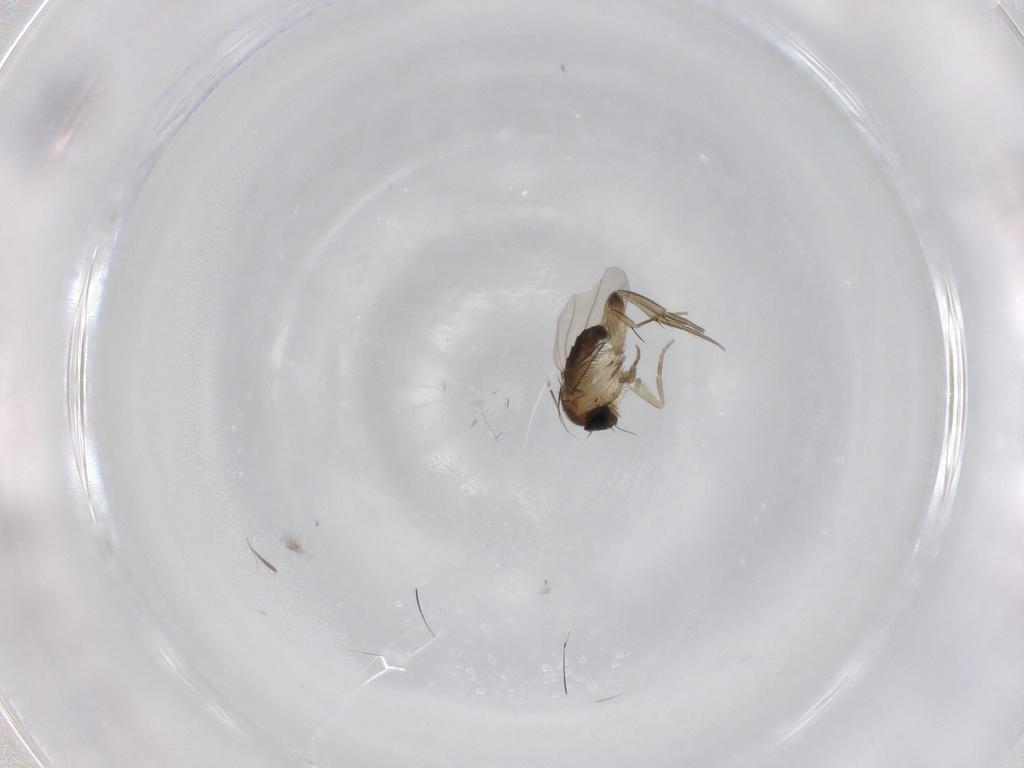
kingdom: Animalia
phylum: Arthropoda
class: Insecta
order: Diptera
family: Phoridae
